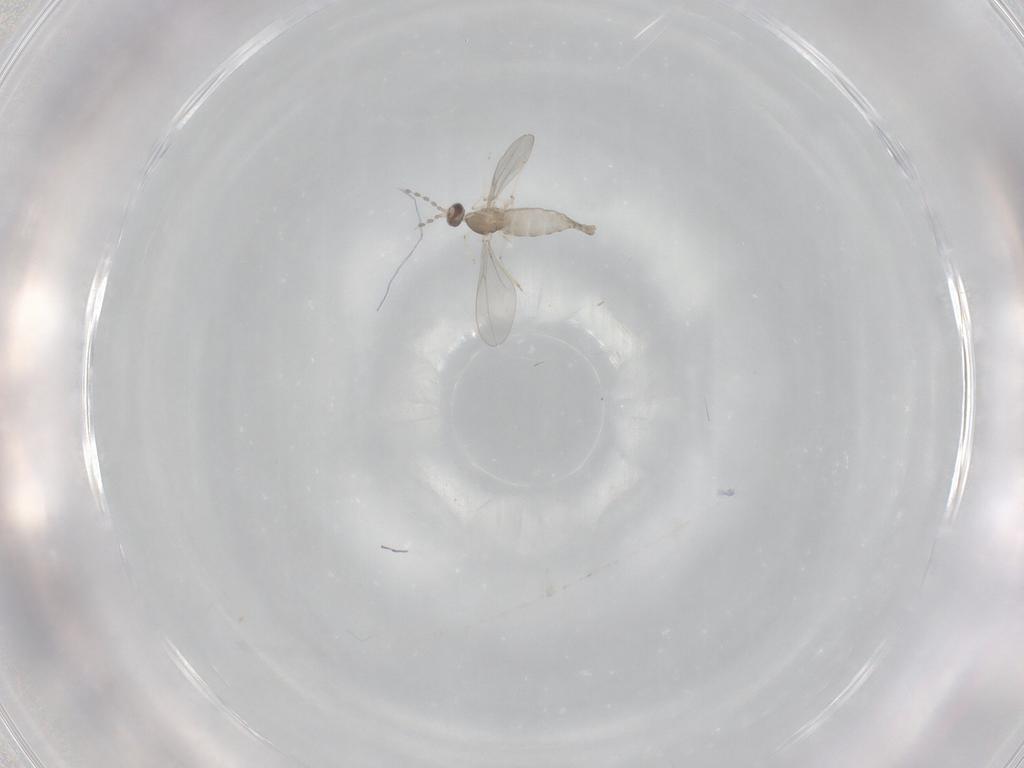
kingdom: Animalia
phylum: Arthropoda
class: Insecta
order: Diptera
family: Cecidomyiidae
